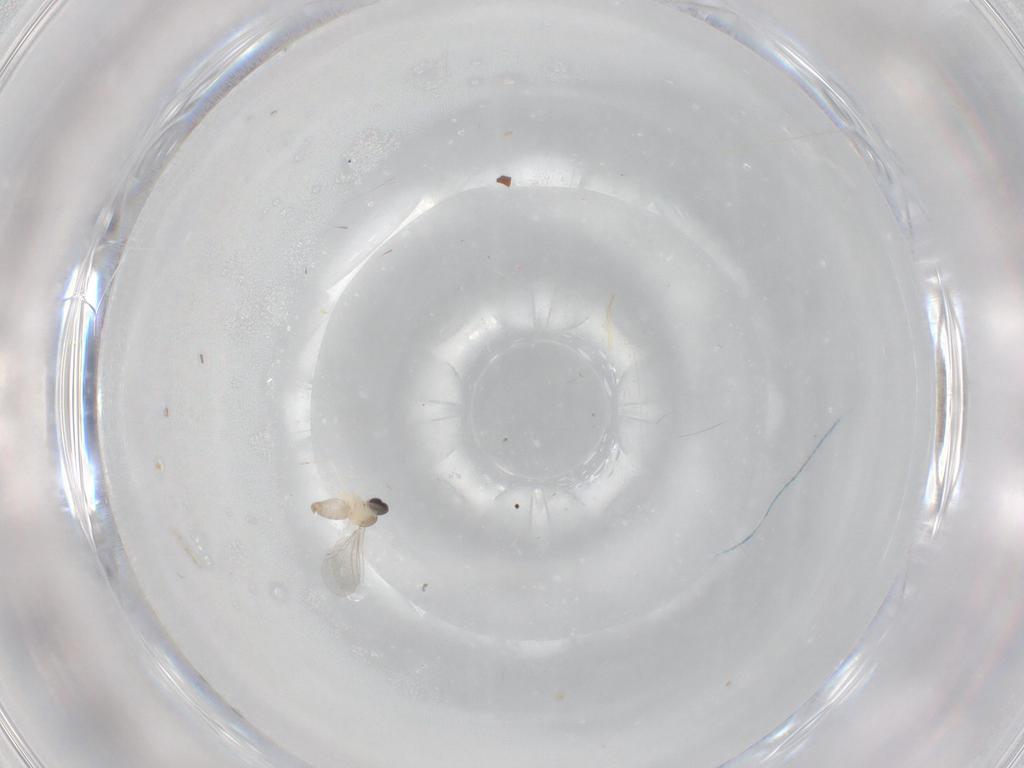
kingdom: Animalia
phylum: Arthropoda
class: Insecta
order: Diptera
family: Cecidomyiidae
